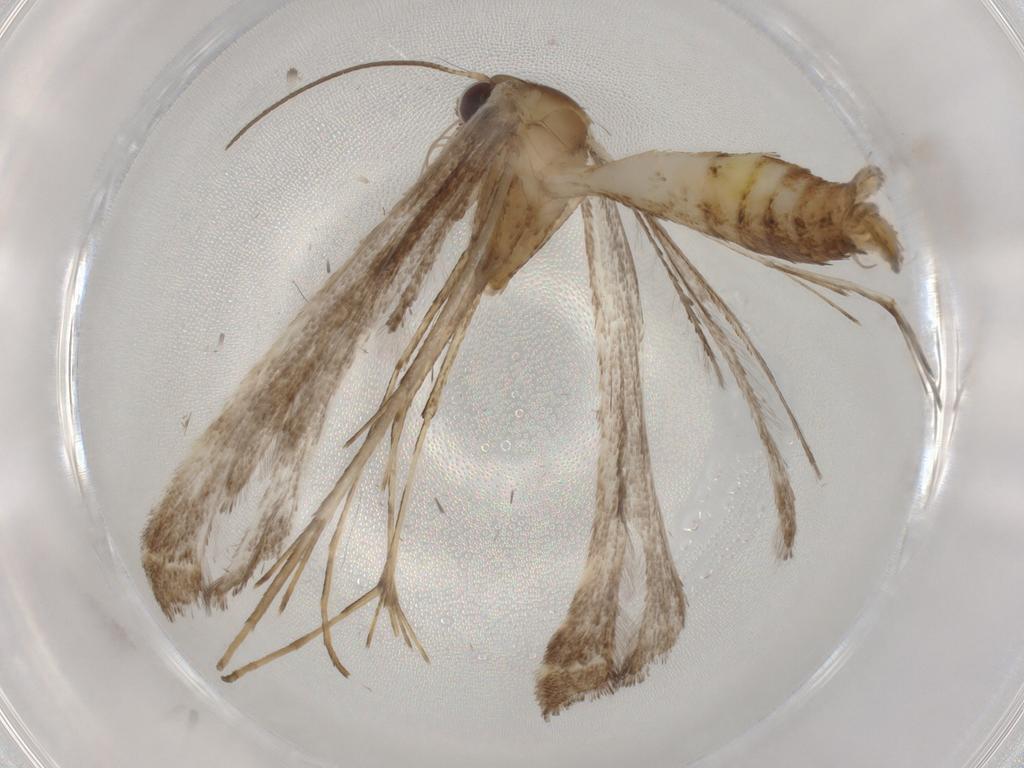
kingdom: Animalia
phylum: Arthropoda
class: Insecta
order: Lepidoptera
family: Pterophoridae
